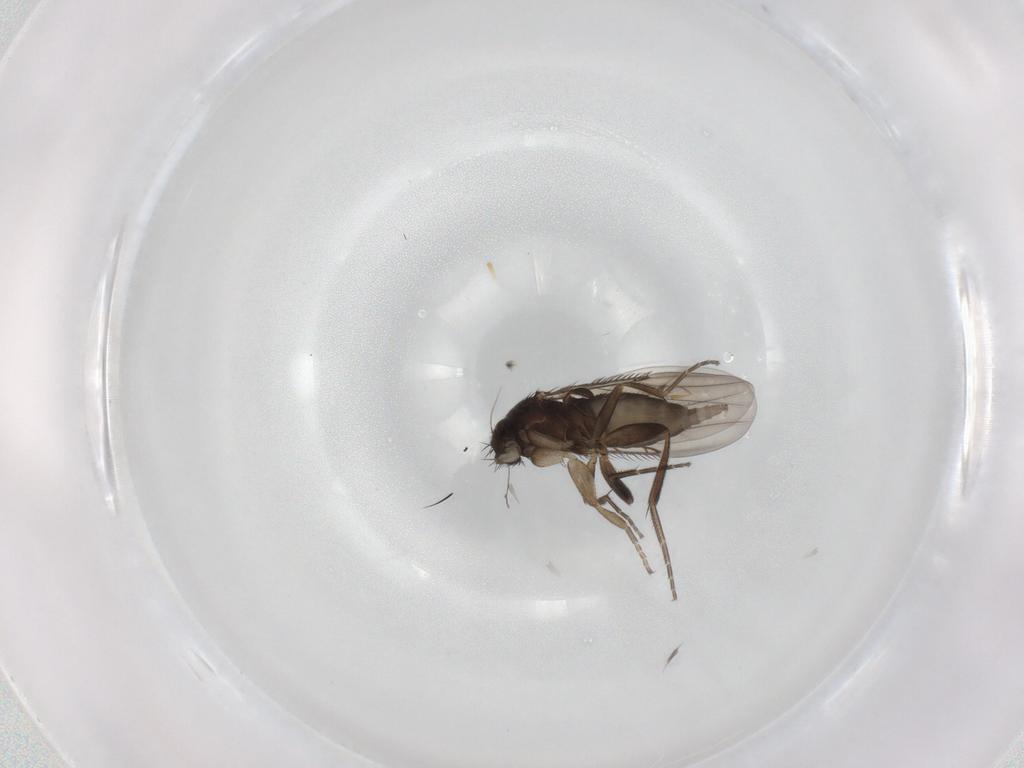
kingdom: Animalia
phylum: Arthropoda
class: Insecta
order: Diptera
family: Phoridae
